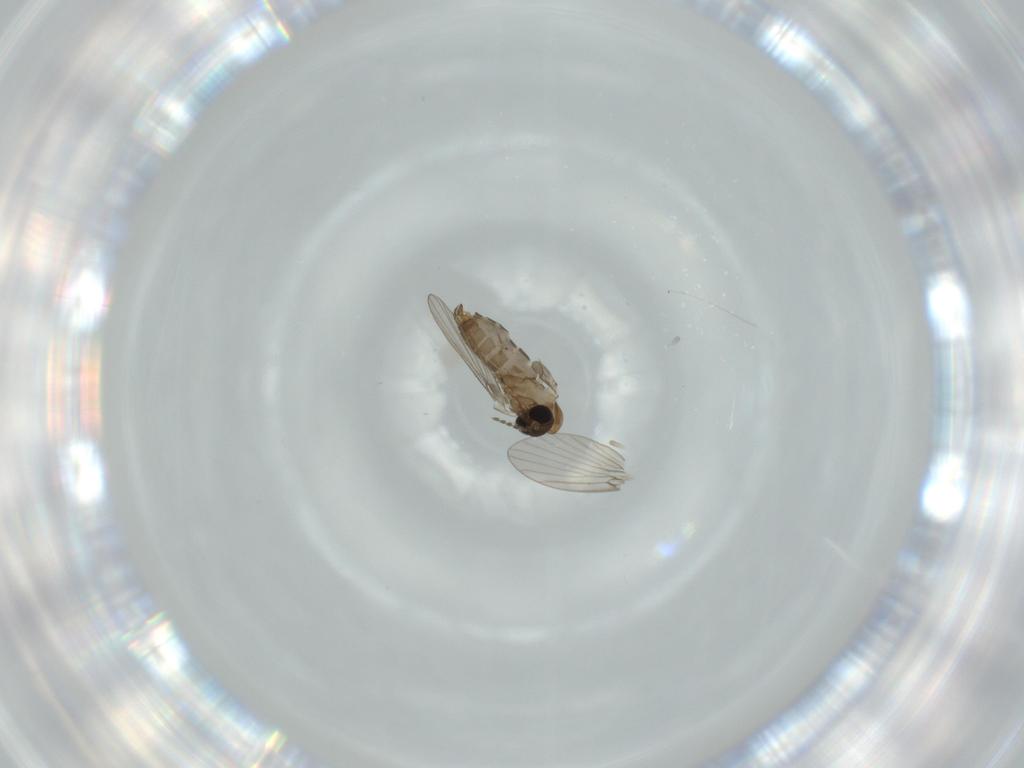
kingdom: Animalia
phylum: Arthropoda
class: Insecta
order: Diptera
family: Psychodidae
